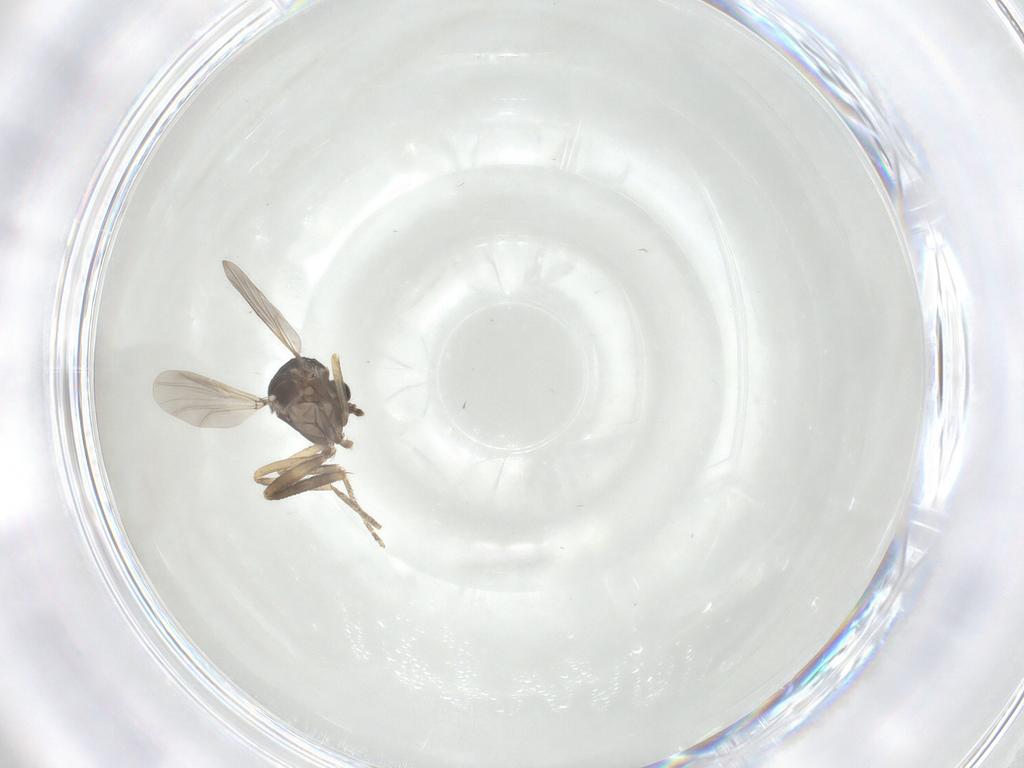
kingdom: Animalia
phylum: Arthropoda
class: Insecta
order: Diptera
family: Ceratopogonidae
